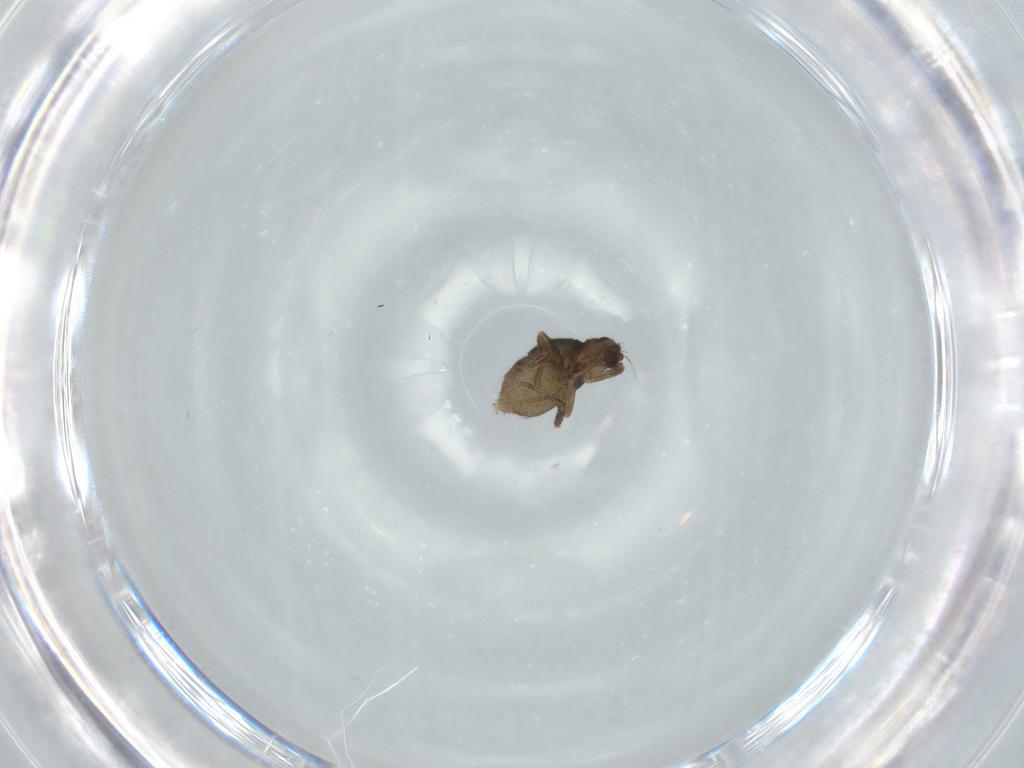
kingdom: Animalia
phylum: Arthropoda
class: Insecta
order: Diptera
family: Phoridae
